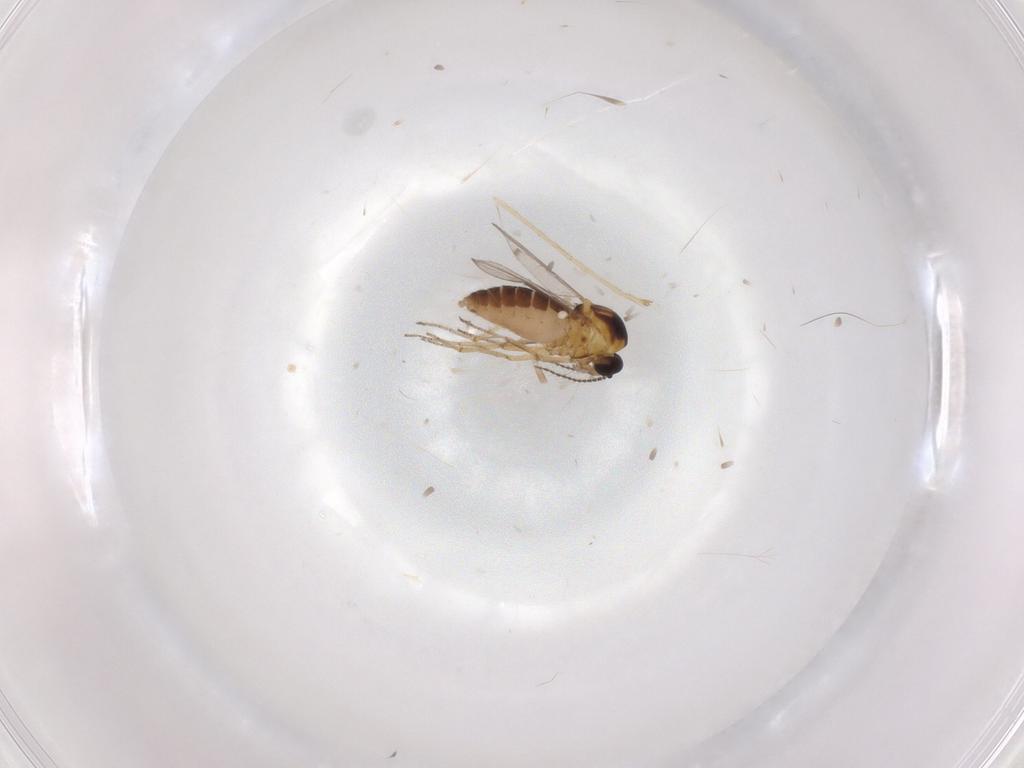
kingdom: Animalia
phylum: Arthropoda
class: Insecta
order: Diptera
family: Ceratopogonidae
